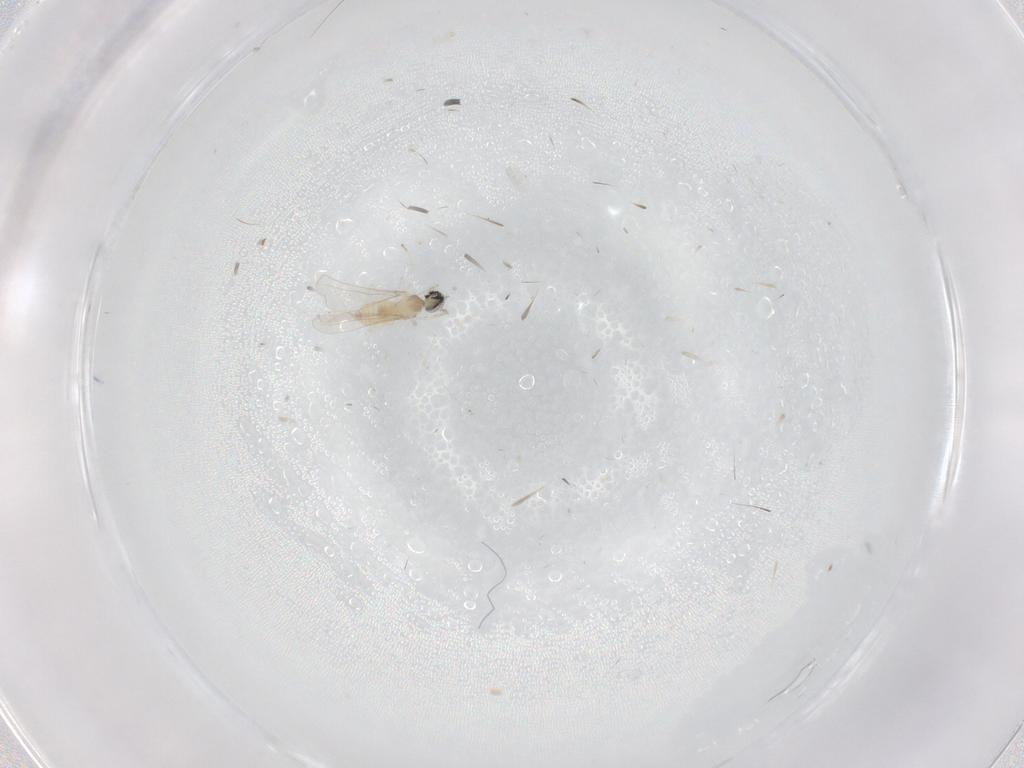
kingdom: Animalia
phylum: Arthropoda
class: Insecta
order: Diptera
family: Cecidomyiidae
